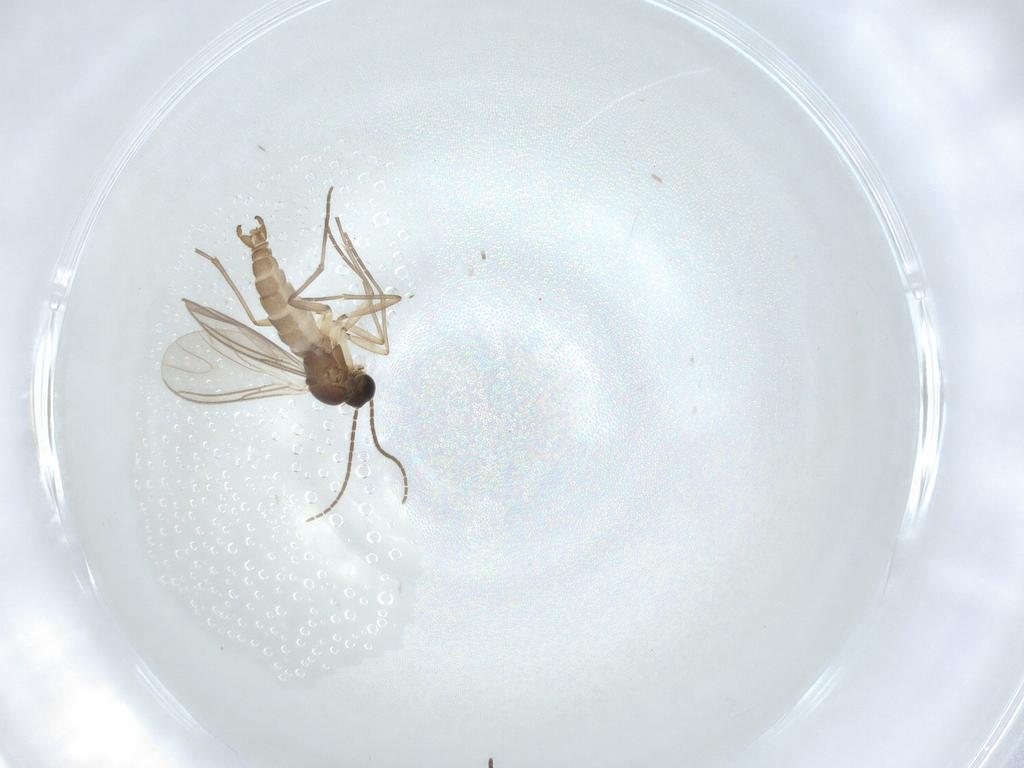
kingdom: Animalia
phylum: Arthropoda
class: Insecta
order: Diptera
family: Sciaridae
